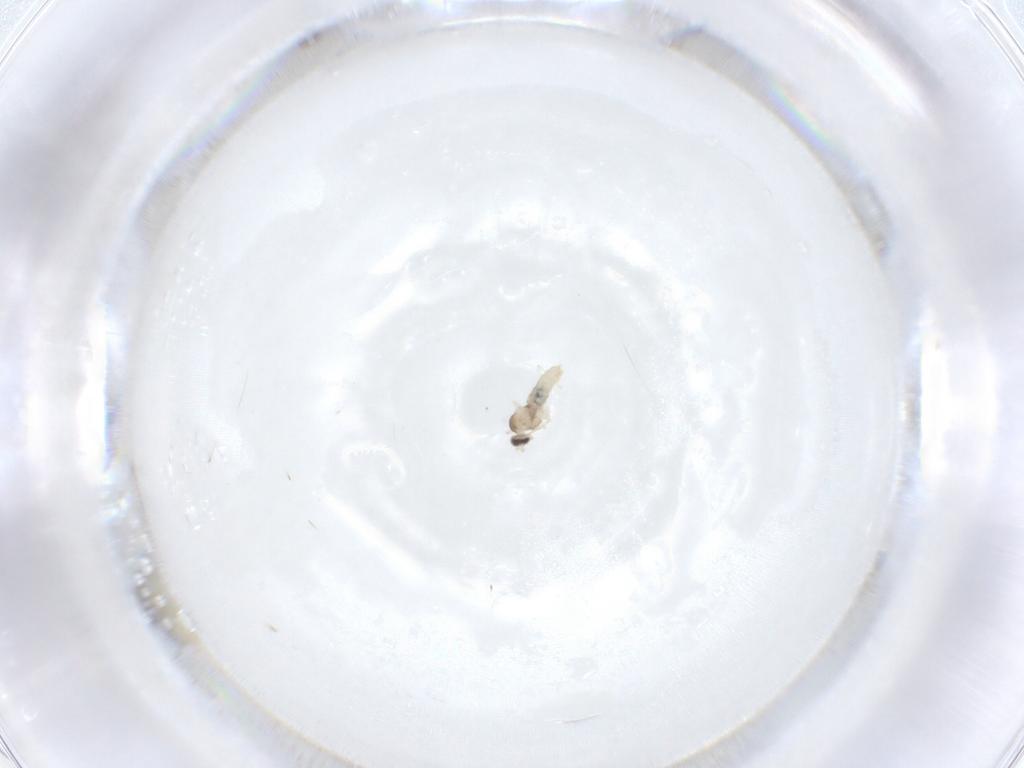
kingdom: Animalia
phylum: Arthropoda
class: Insecta
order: Diptera
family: Cecidomyiidae
